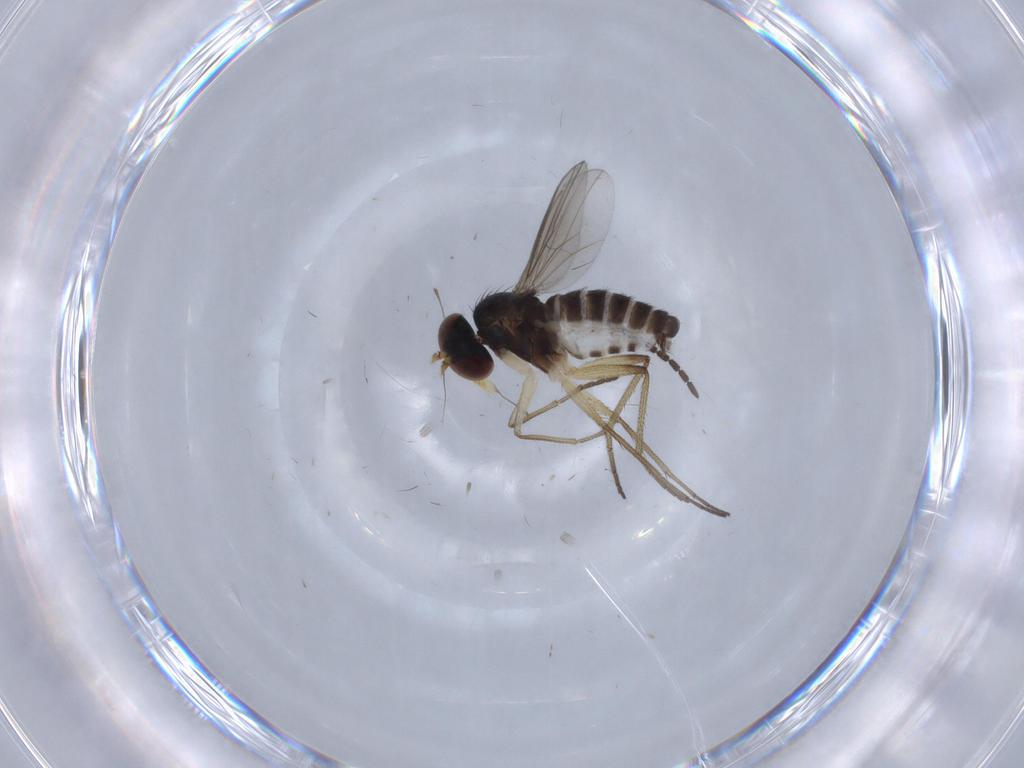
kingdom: Animalia
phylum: Arthropoda
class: Insecta
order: Diptera
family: Dolichopodidae
